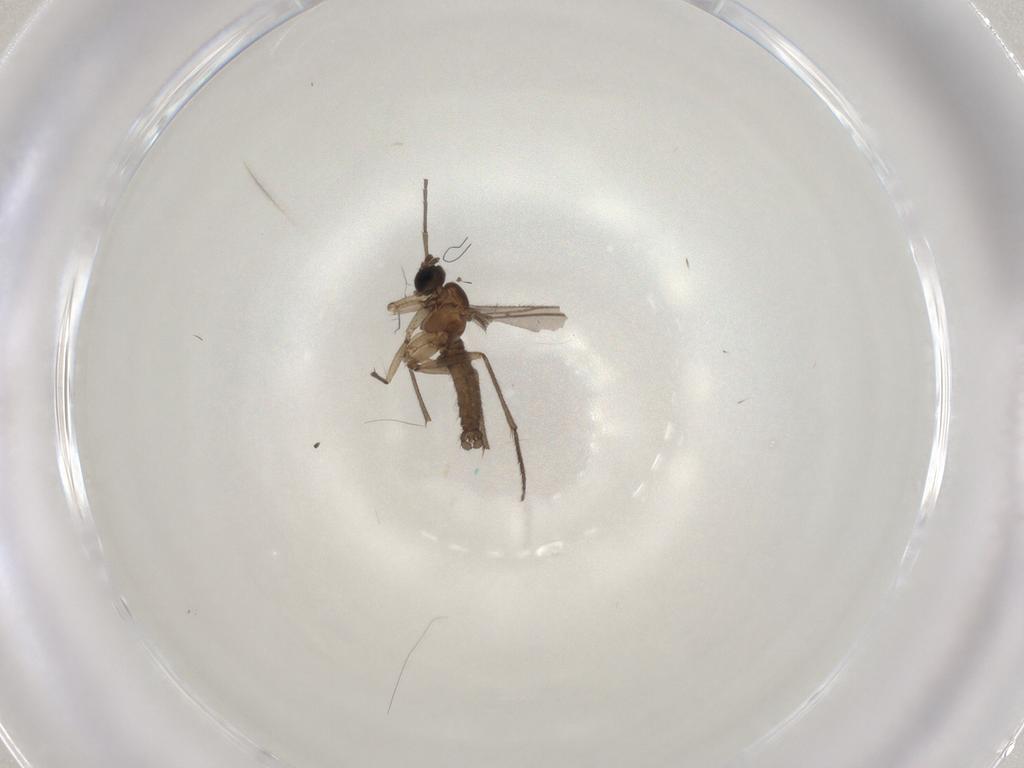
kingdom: Animalia
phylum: Arthropoda
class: Insecta
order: Diptera
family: Sciaridae
